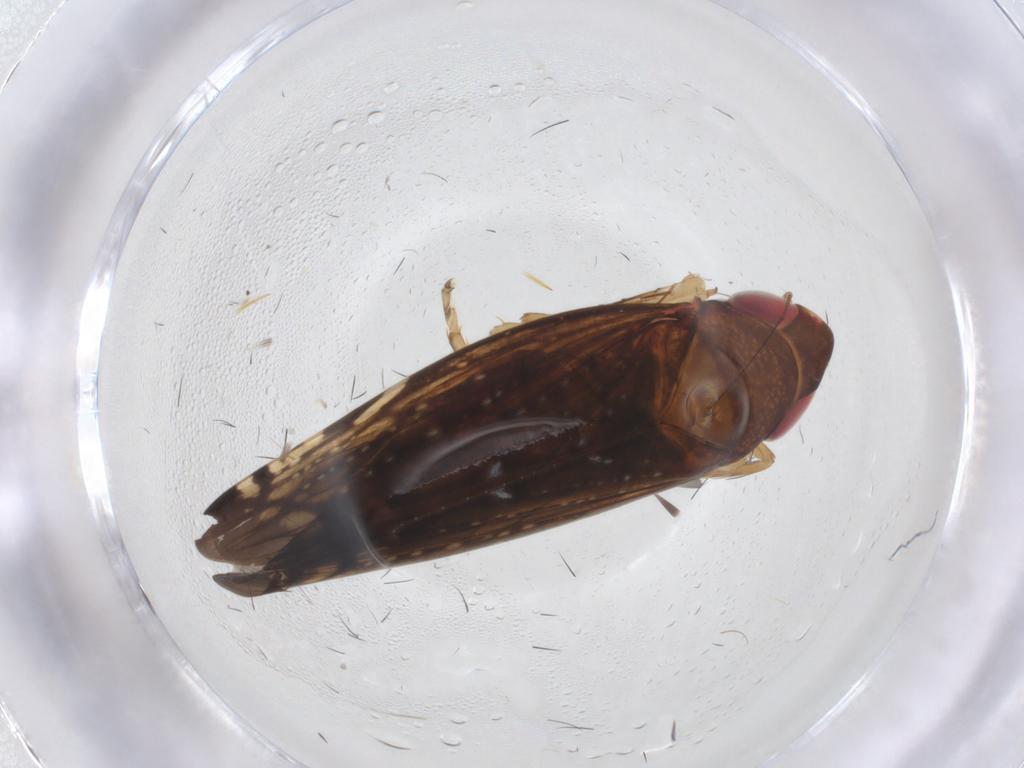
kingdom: Animalia
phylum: Arthropoda
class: Insecta
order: Hemiptera
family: Cicadellidae
